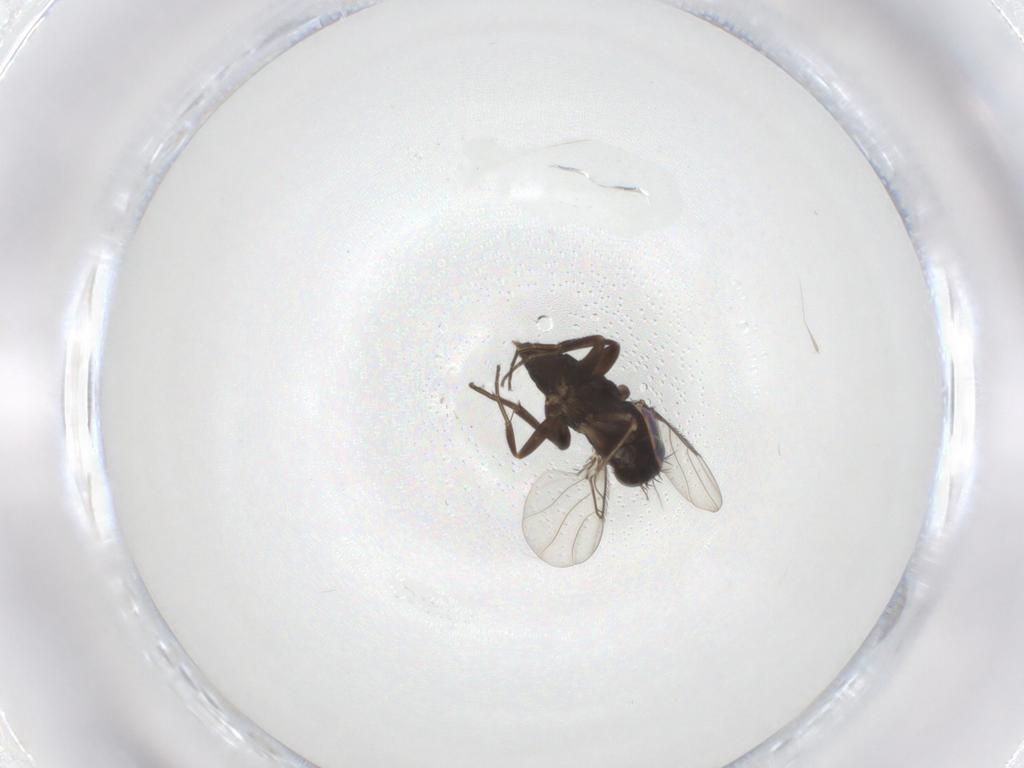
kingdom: Animalia
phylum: Arthropoda
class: Insecta
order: Diptera
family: Phoridae
